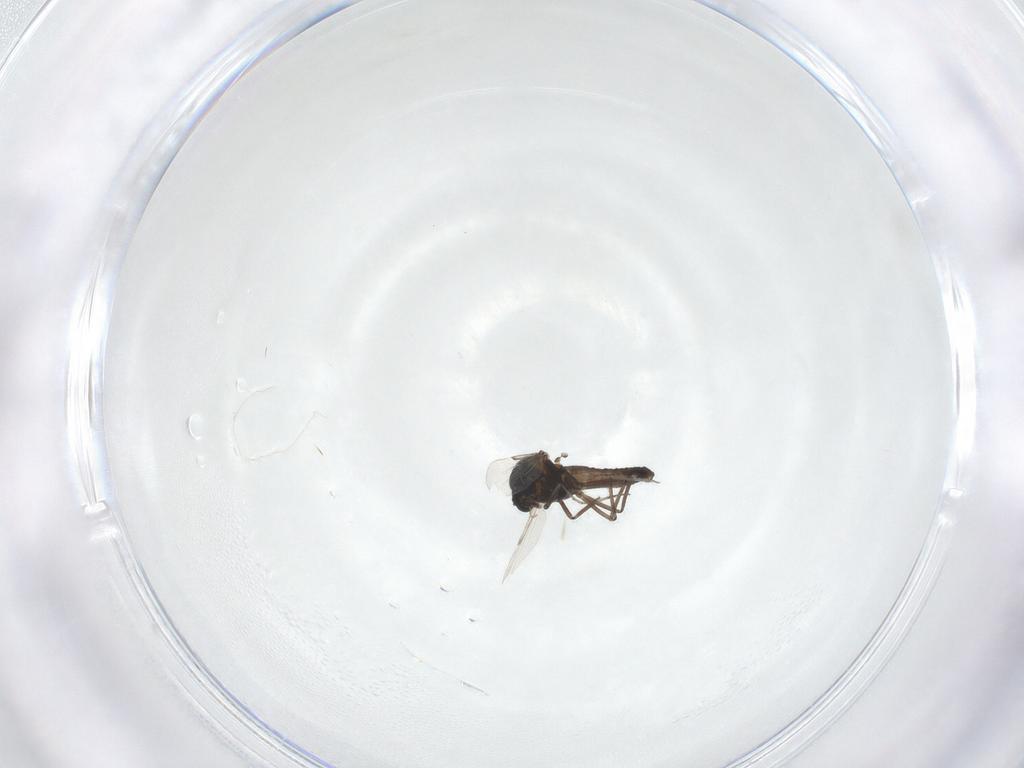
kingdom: Animalia
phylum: Arthropoda
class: Insecta
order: Diptera
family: Ceratopogonidae
